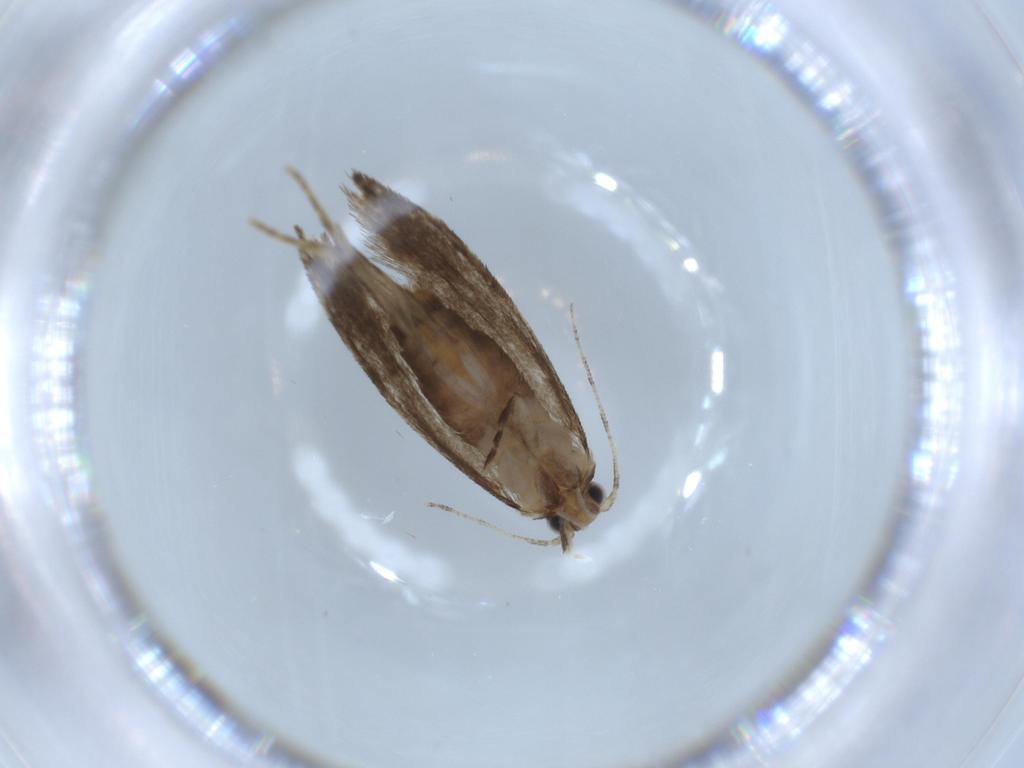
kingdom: Animalia
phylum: Arthropoda
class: Insecta
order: Lepidoptera
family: Tineidae
